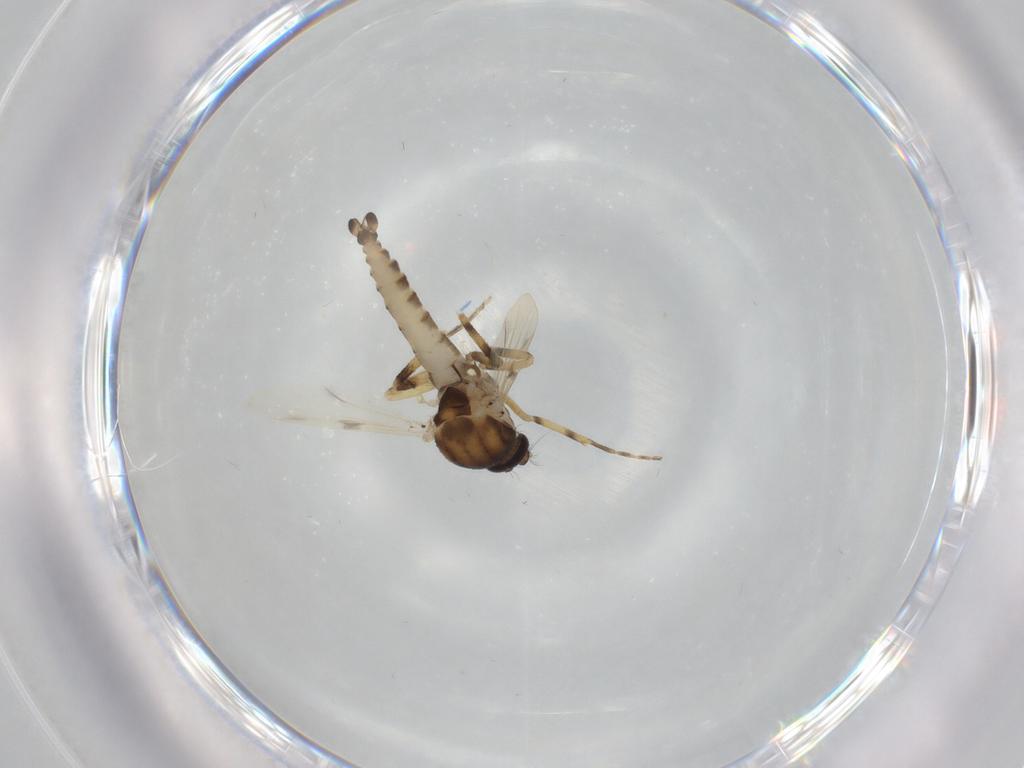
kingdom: Animalia
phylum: Arthropoda
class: Insecta
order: Diptera
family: Ceratopogonidae
